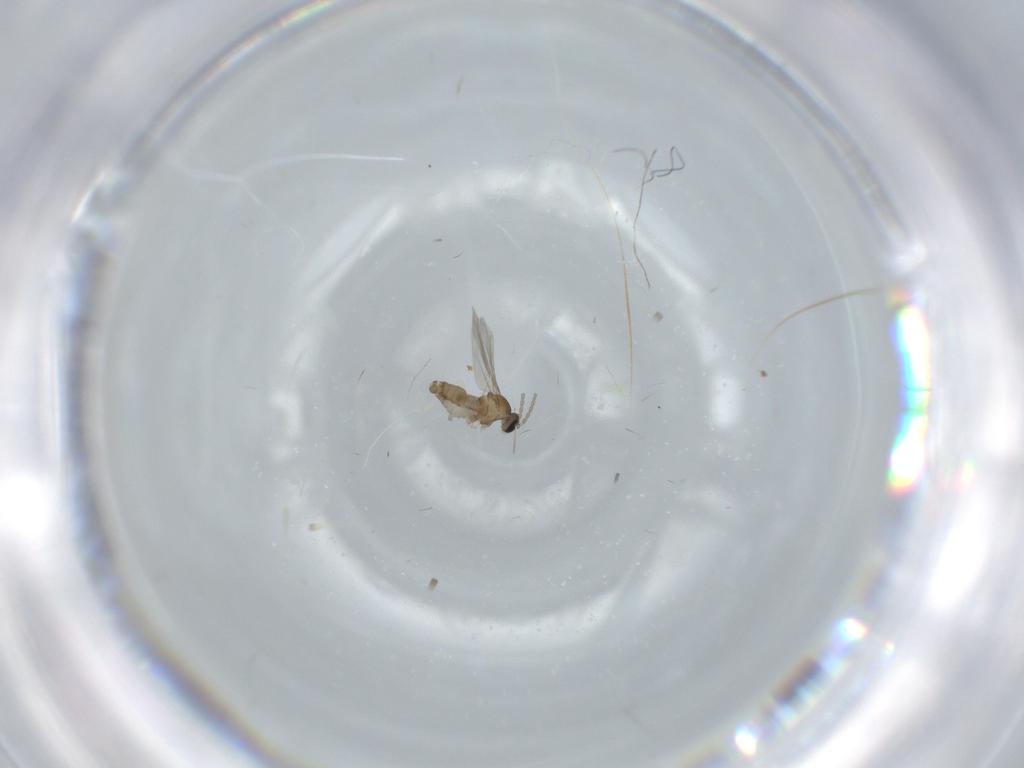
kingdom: Animalia
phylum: Arthropoda
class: Insecta
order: Diptera
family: Cecidomyiidae
